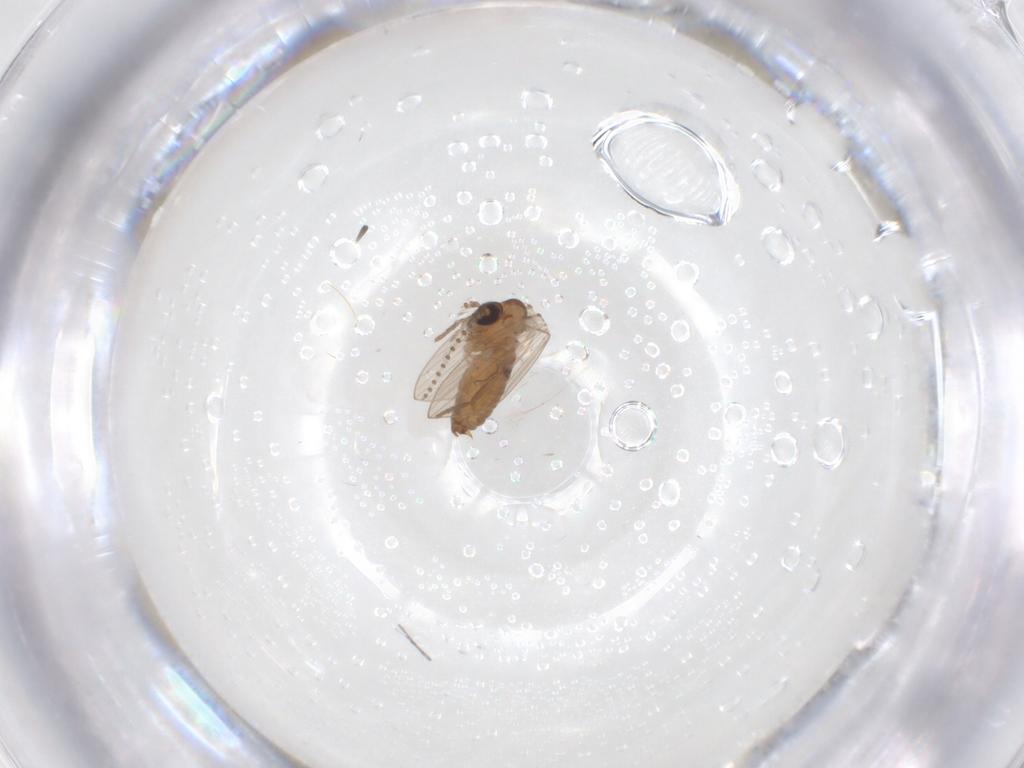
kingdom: Animalia
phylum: Arthropoda
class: Insecta
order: Diptera
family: Psychodidae
